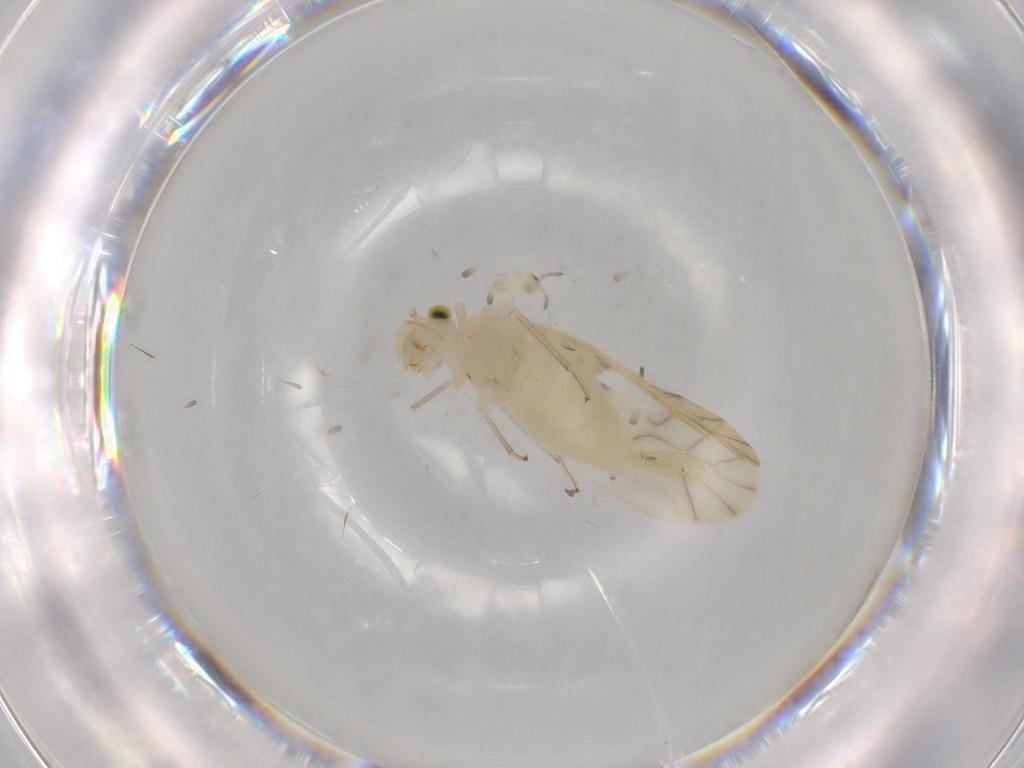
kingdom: Animalia
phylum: Arthropoda
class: Insecta
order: Psocodea
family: Caeciliusidae
